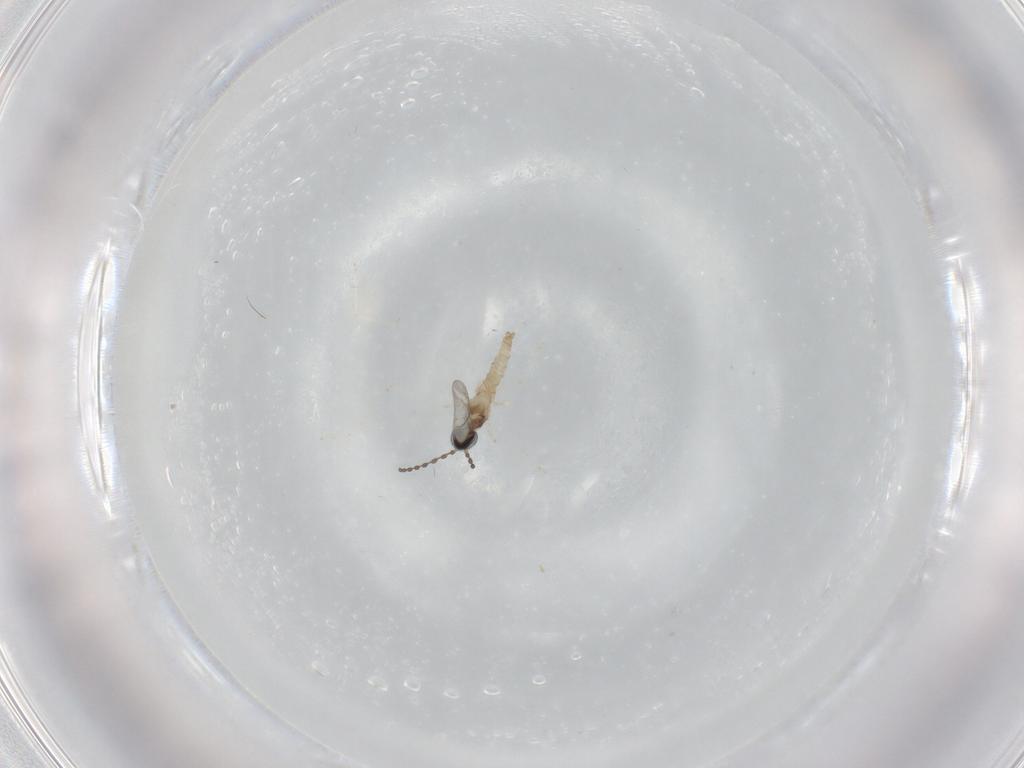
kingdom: Animalia
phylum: Arthropoda
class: Insecta
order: Diptera
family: Cecidomyiidae
